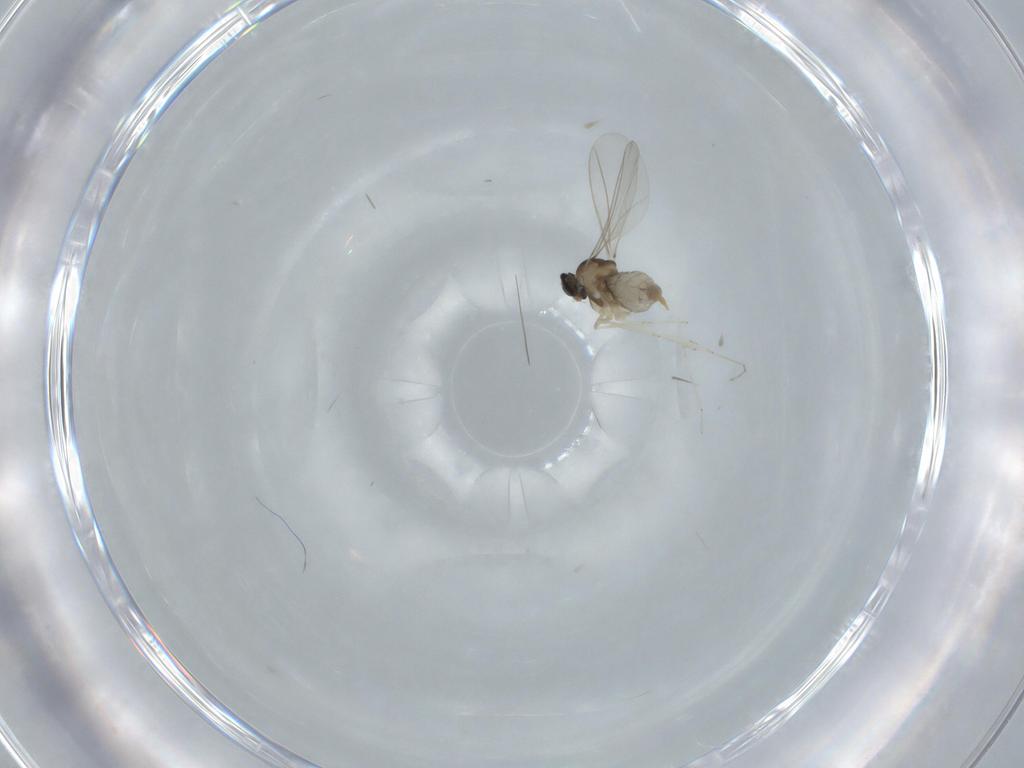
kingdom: Animalia
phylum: Arthropoda
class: Insecta
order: Diptera
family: Cecidomyiidae
